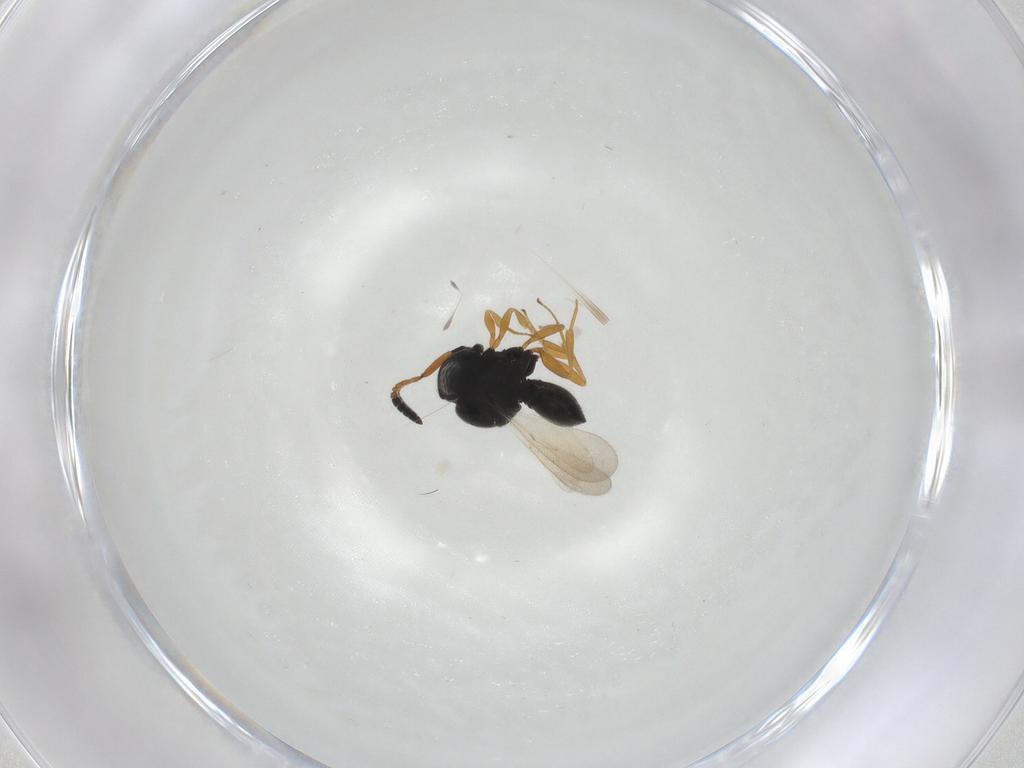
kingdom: Animalia
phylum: Arthropoda
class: Insecta
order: Hymenoptera
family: Scelionidae
